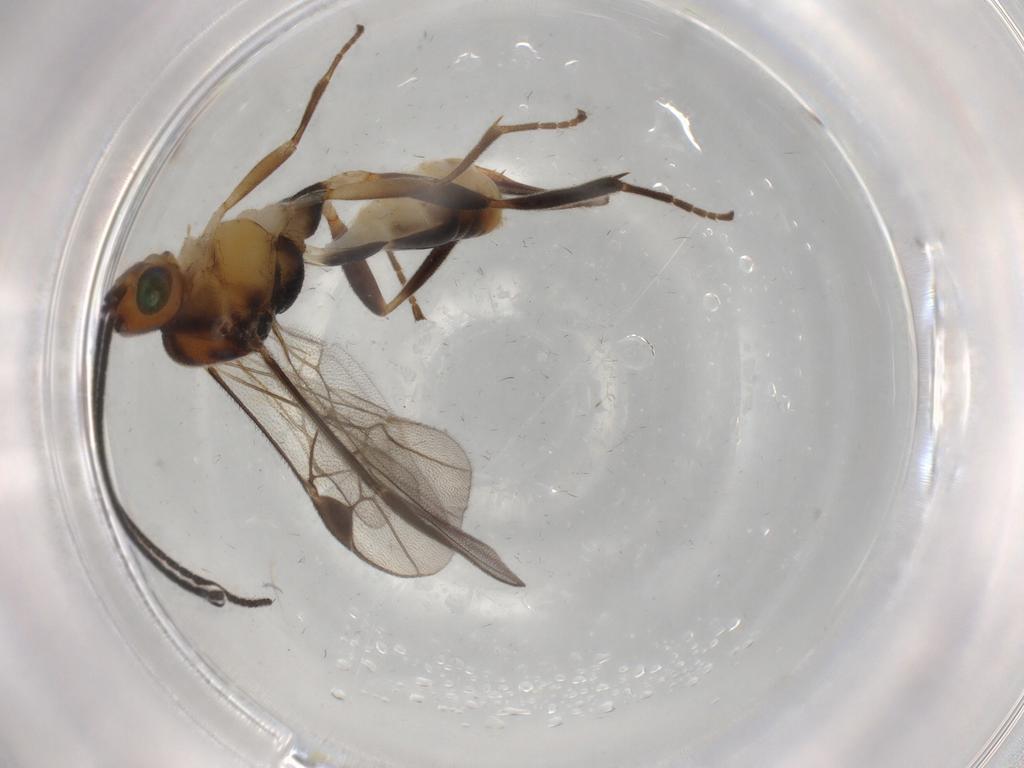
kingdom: Animalia
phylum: Arthropoda
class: Insecta
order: Hymenoptera
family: Braconidae
